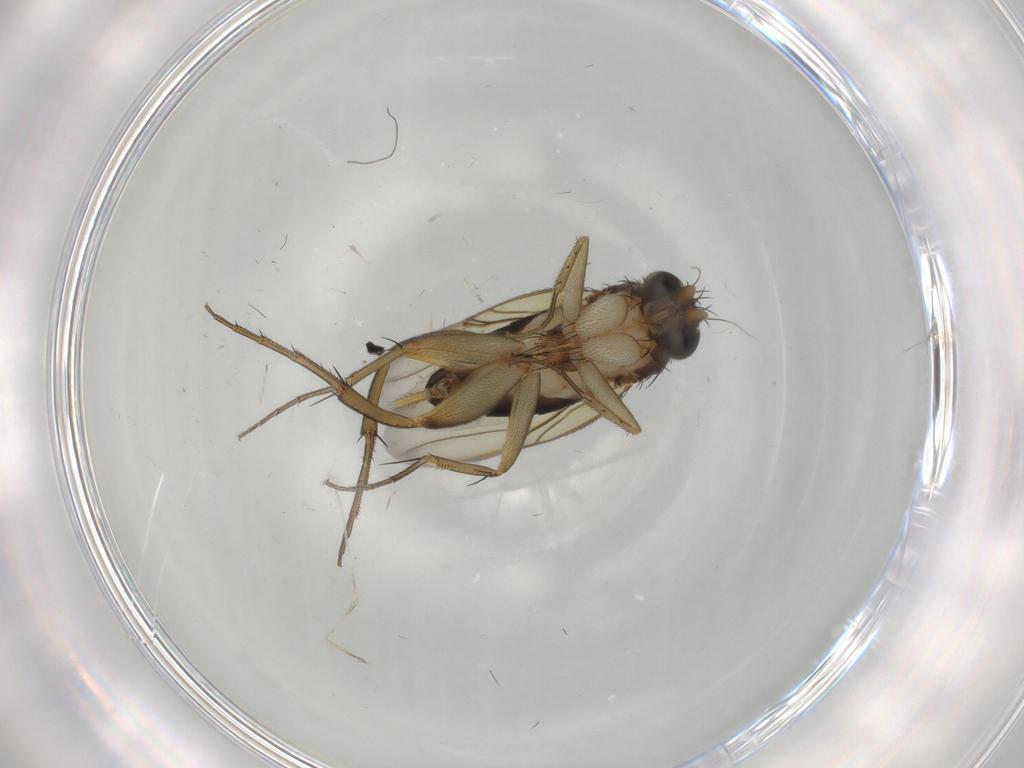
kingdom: Animalia
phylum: Arthropoda
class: Insecta
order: Diptera
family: Phoridae
